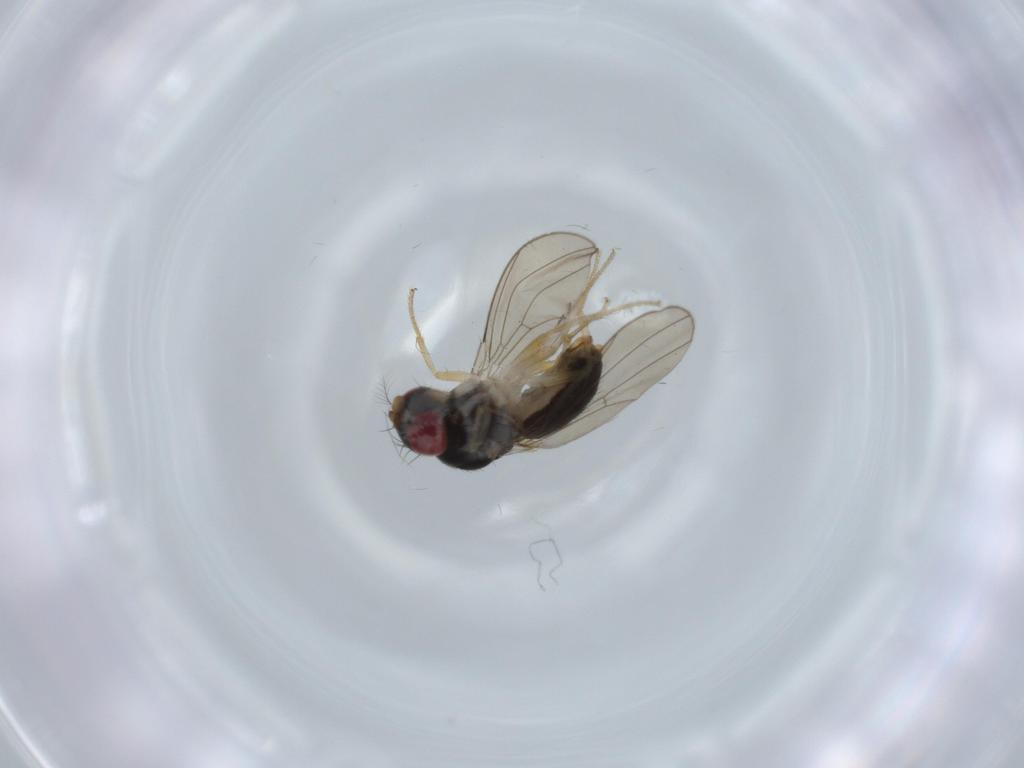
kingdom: Animalia
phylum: Arthropoda
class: Insecta
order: Diptera
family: Drosophilidae
